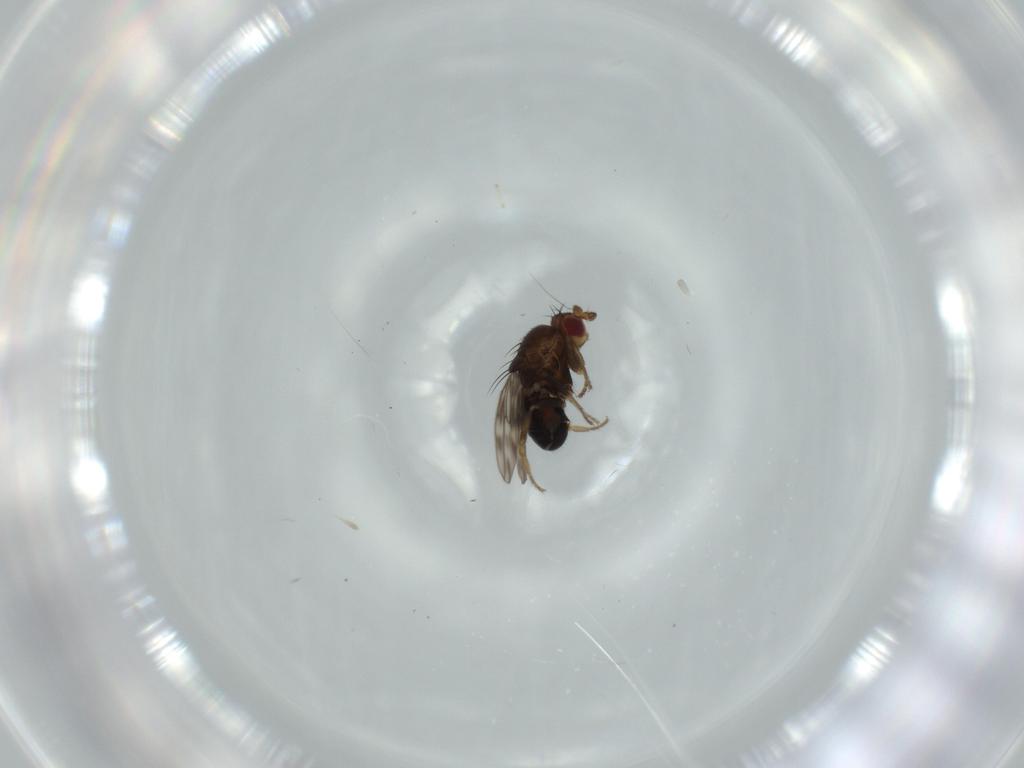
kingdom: Animalia
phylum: Arthropoda
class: Insecta
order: Diptera
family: Sphaeroceridae
